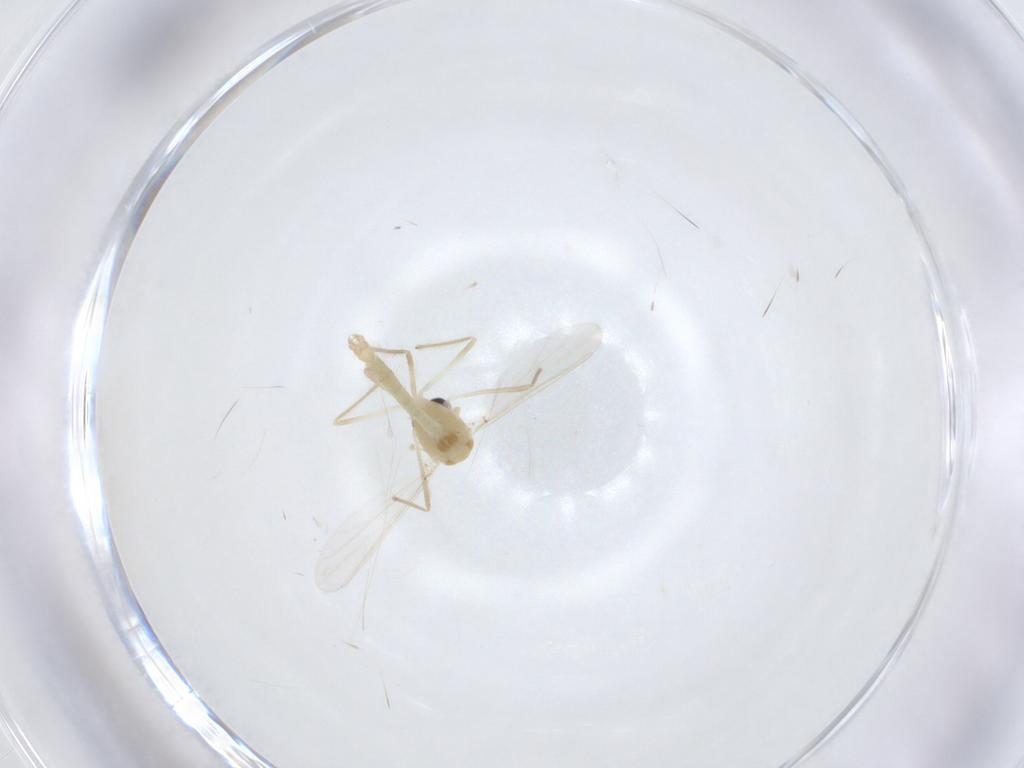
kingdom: Animalia
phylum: Arthropoda
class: Insecta
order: Diptera
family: Chironomidae
